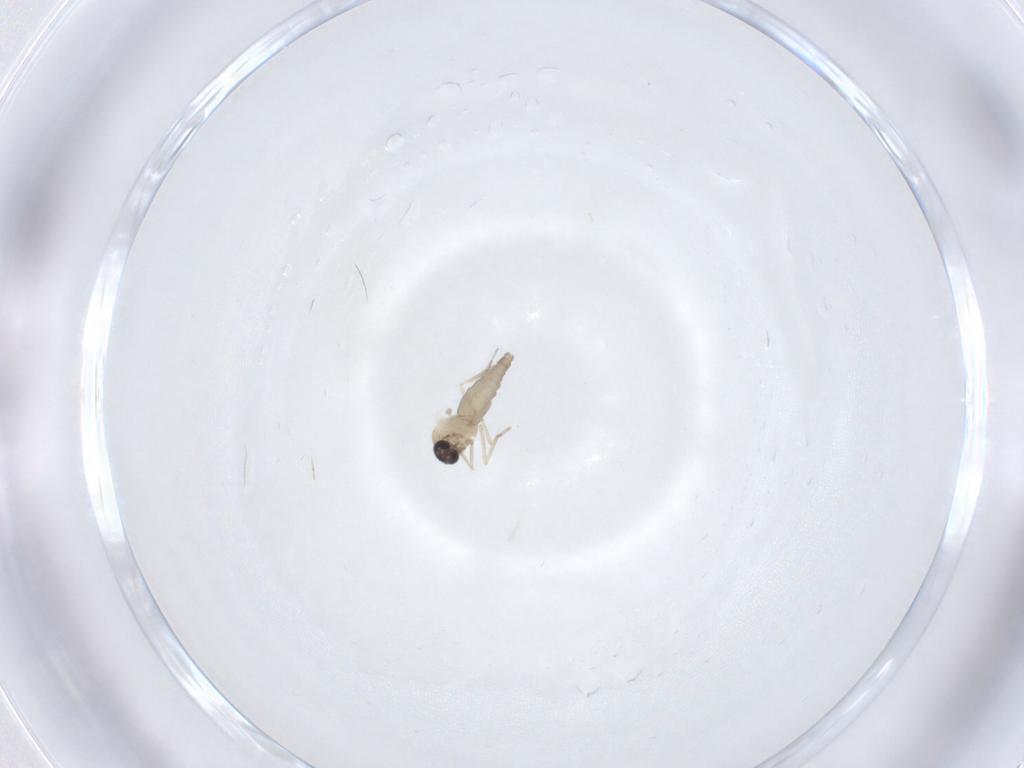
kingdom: Animalia
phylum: Arthropoda
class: Insecta
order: Diptera
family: Ceratopogonidae
